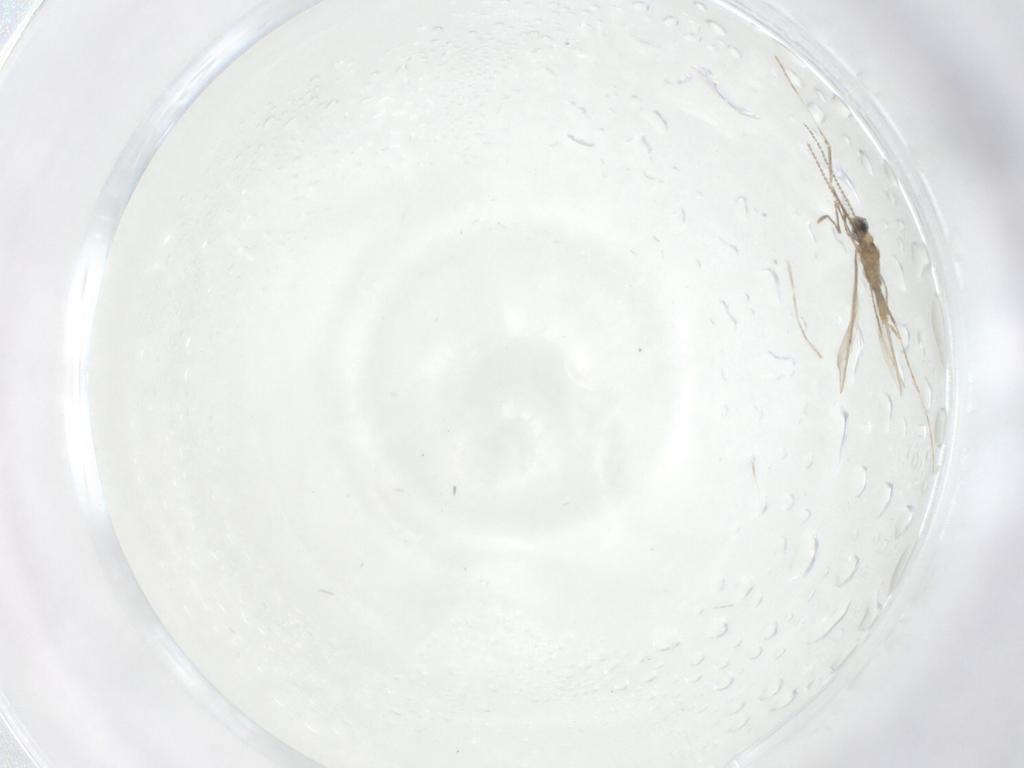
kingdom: Animalia
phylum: Arthropoda
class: Insecta
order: Diptera
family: Cecidomyiidae
